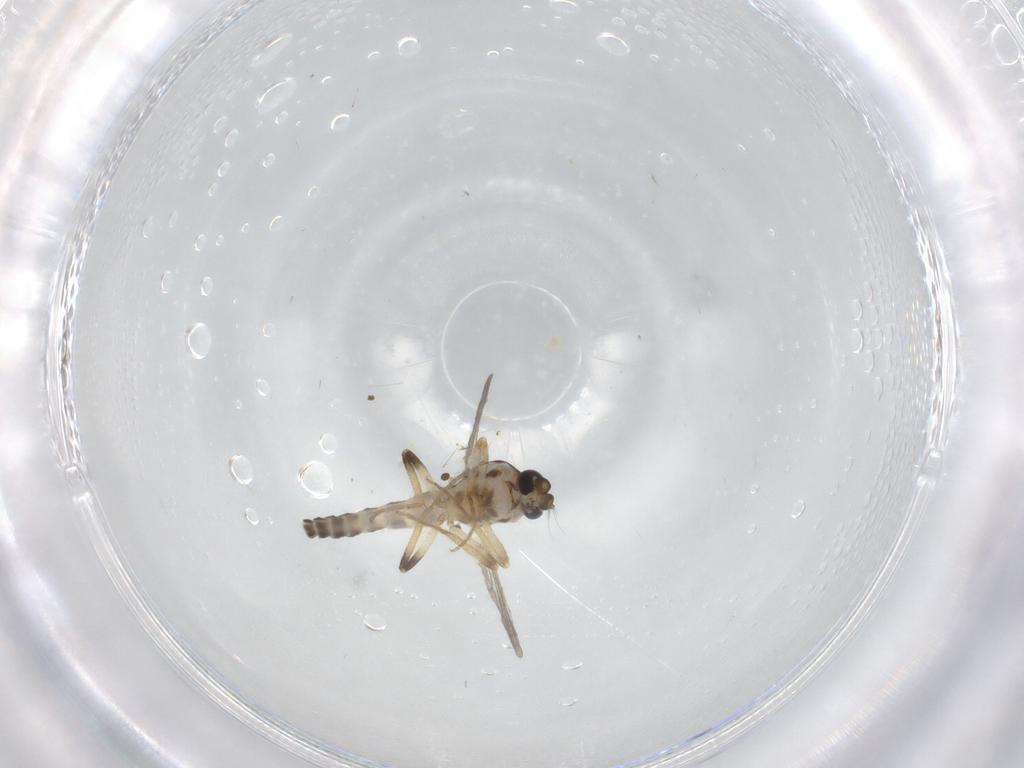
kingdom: Animalia
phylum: Arthropoda
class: Insecta
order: Diptera
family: Ceratopogonidae
